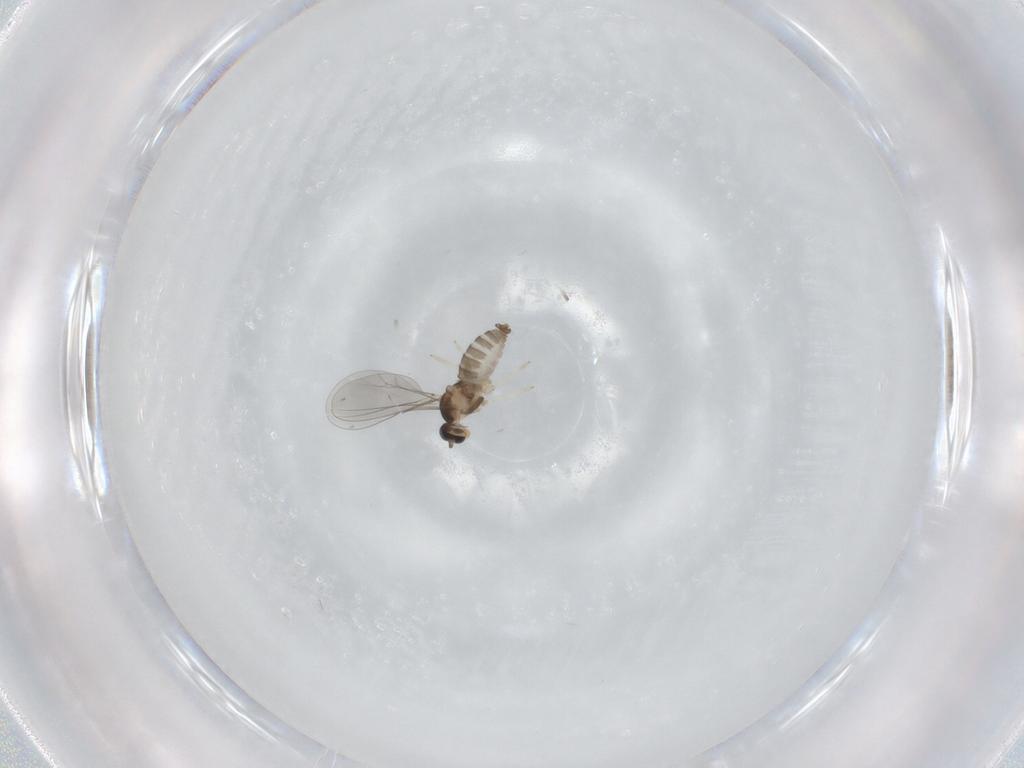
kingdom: Animalia
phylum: Arthropoda
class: Insecta
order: Diptera
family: Cecidomyiidae
